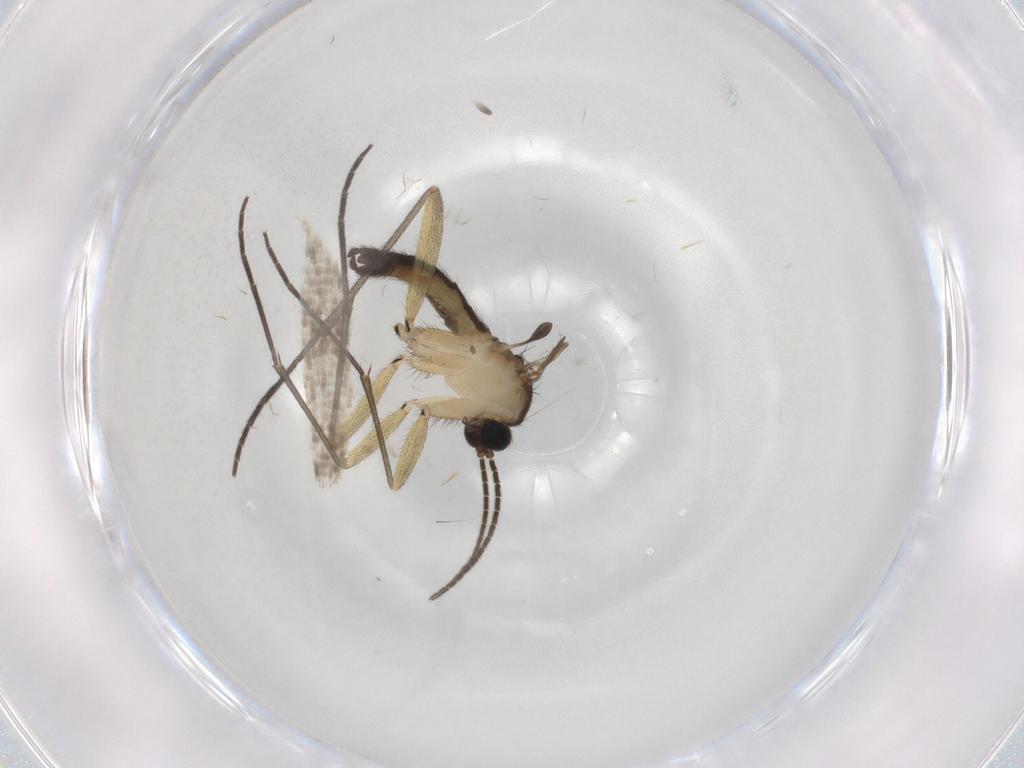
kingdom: Animalia
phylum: Arthropoda
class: Insecta
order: Diptera
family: Sciaridae
